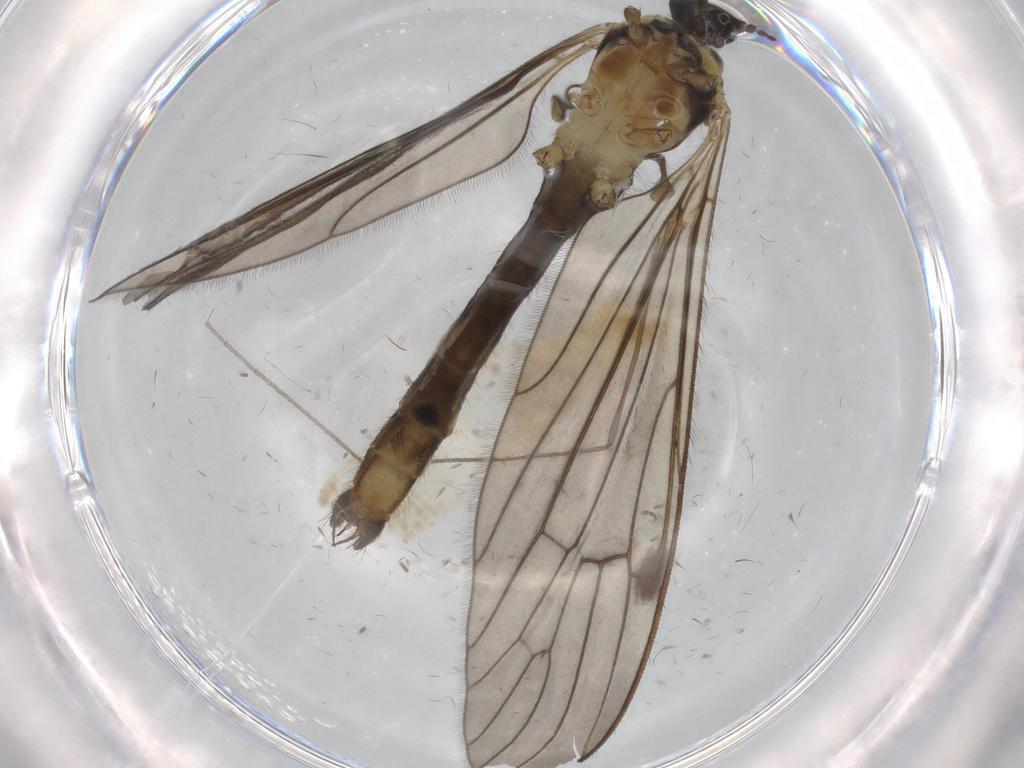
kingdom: Animalia
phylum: Arthropoda
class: Insecta
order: Diptera
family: Limoniidae
